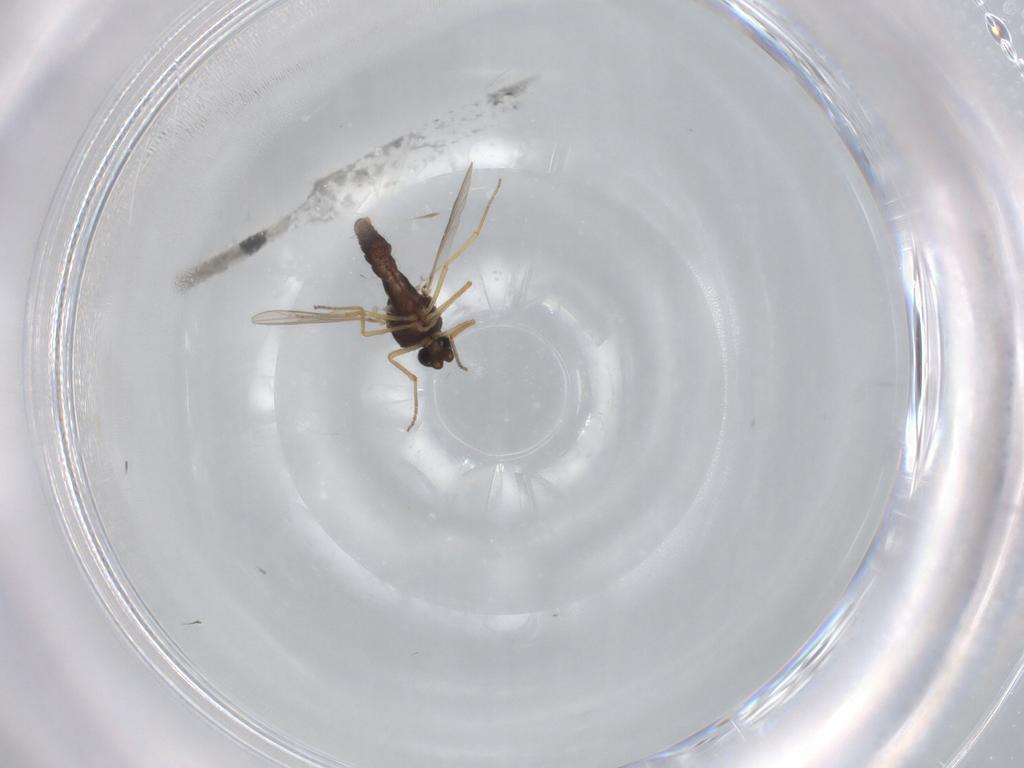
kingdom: Animalia
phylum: Arthropoda
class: Insecta
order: Diptera
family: Ceratopogonidae
